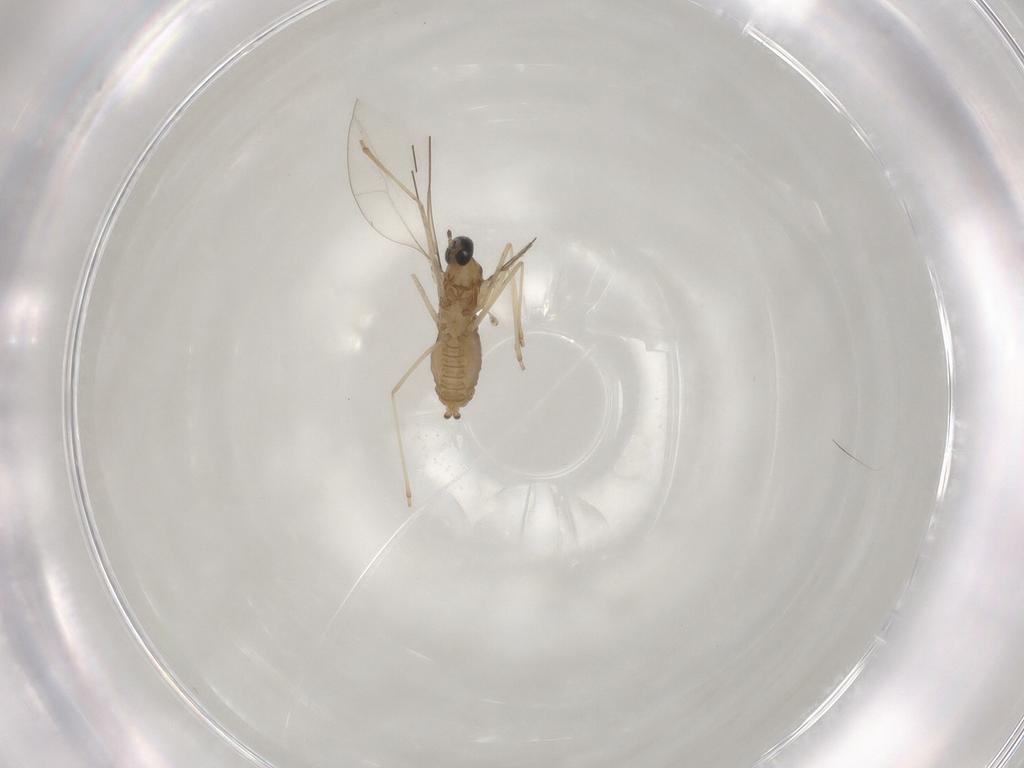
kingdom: Animalia
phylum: Arthropoda
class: Insecta
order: Diptera
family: Cecidomyiidae
